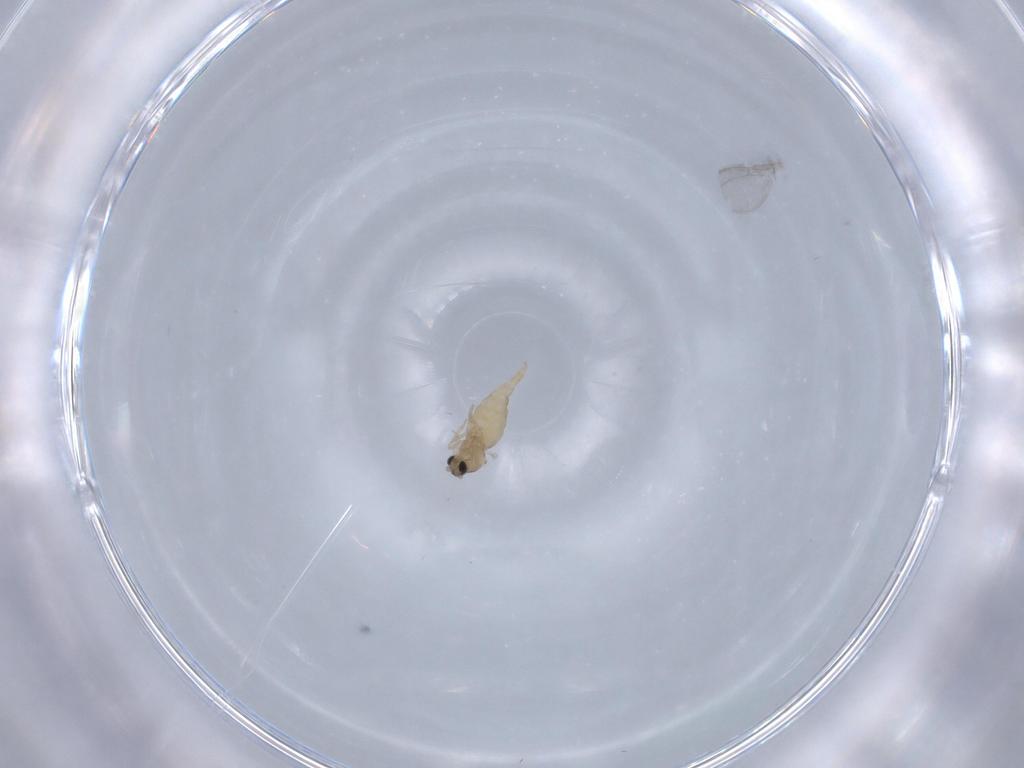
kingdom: Animalia
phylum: Arthropoda
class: Insecta
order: Diptera
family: Cecidomyiidae
